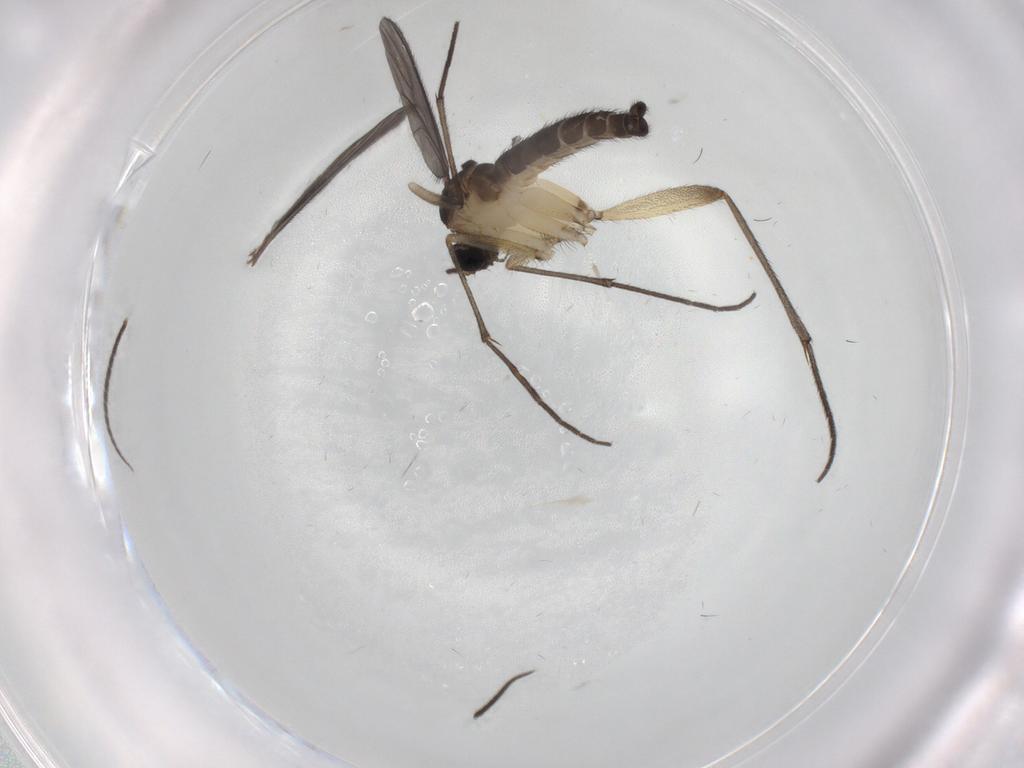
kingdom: Animalia
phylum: Arthropoda
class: Insecta
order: Diptera
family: Sciaridae
